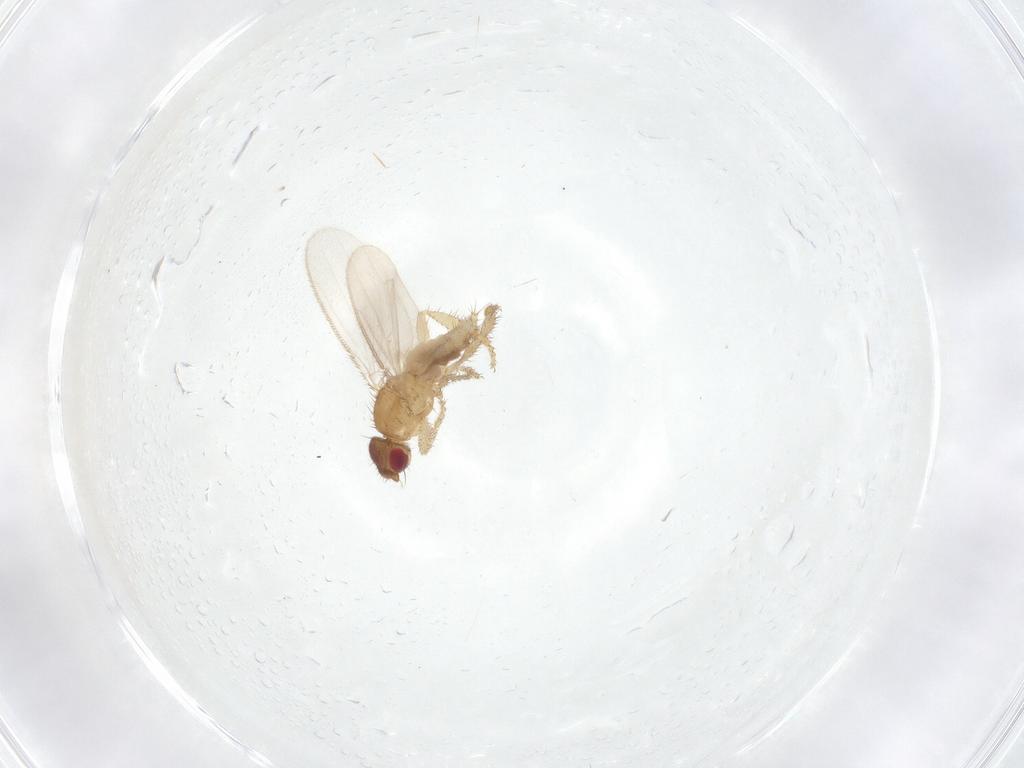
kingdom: Animalia
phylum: Arthropoda
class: Insecta
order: Diptera
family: Sphaeroceridae
